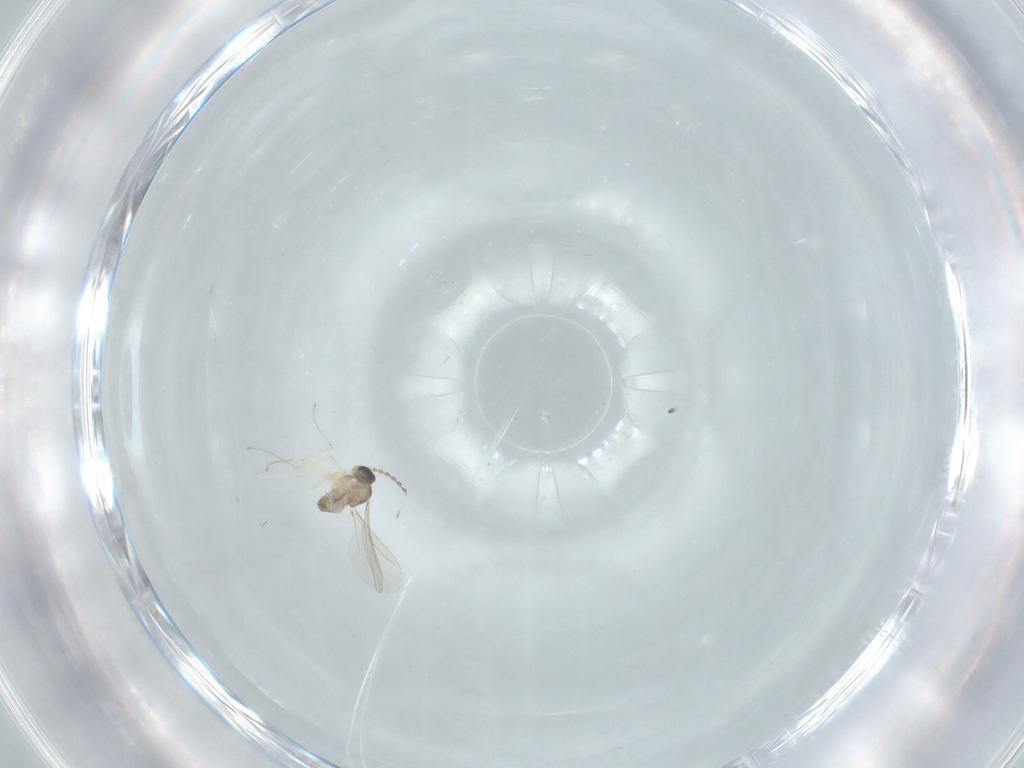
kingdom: Animalia
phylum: Arthropoda
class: Insecta
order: Diptera
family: Cecidomyiidae
